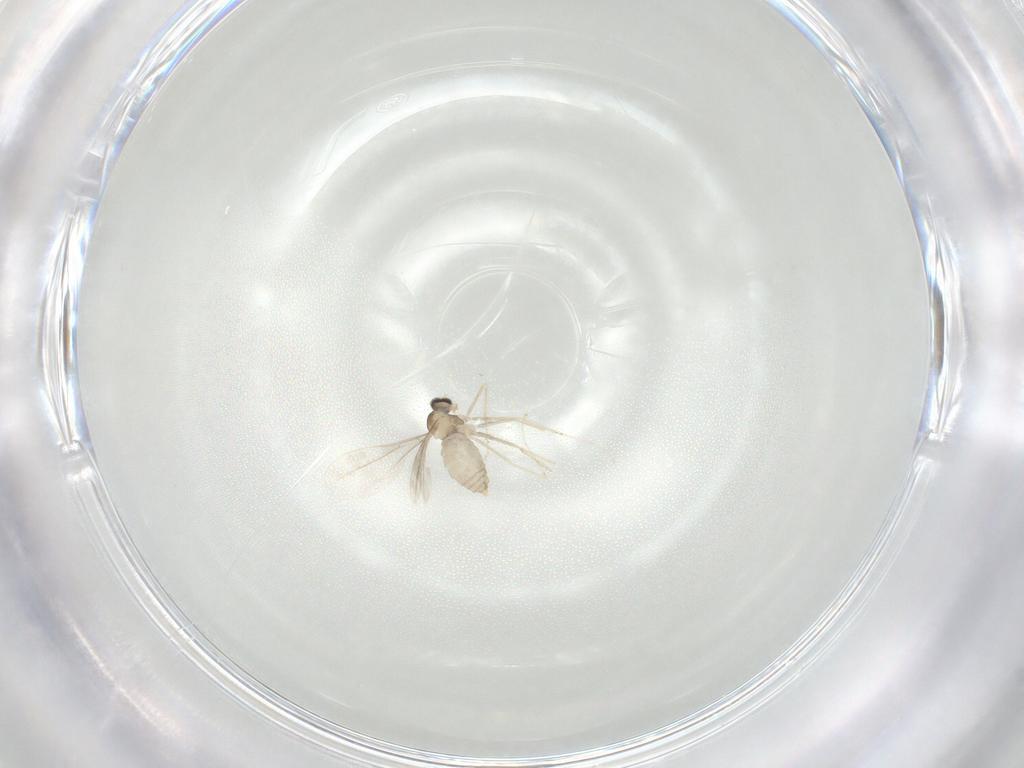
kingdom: Animalia
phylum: Arthropoda
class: Insecta
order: Diptera
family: Cecidomyiidae
